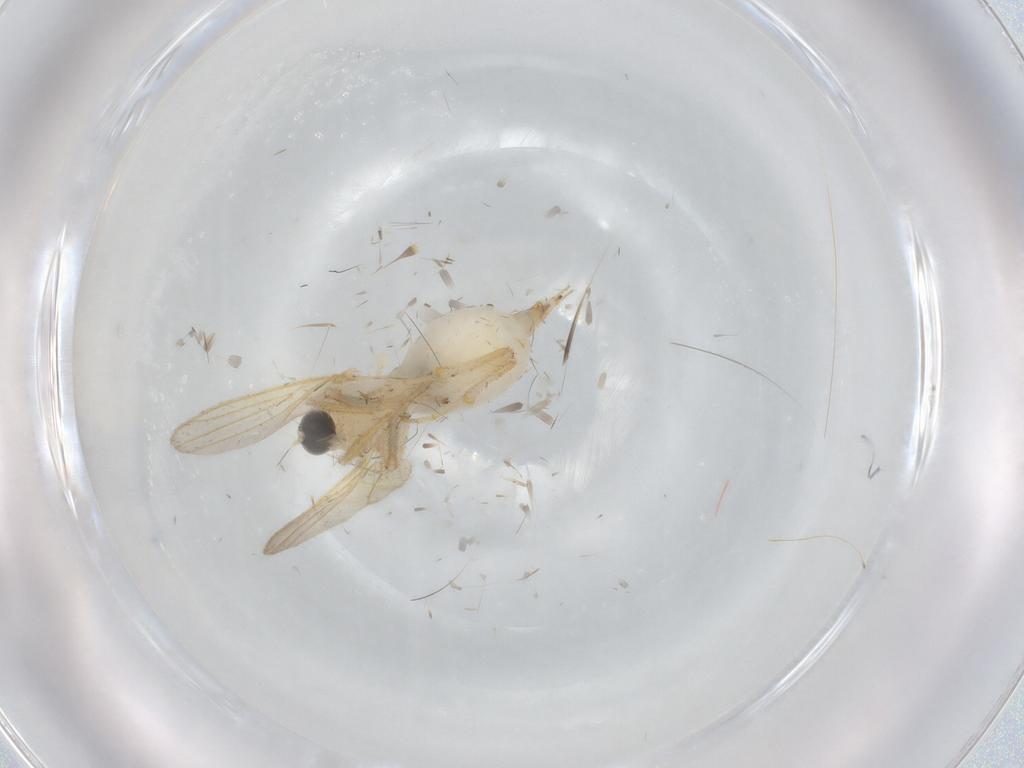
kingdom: Animalia
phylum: Arthropoda
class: Insecta
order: Diptera
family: Hybotidae
